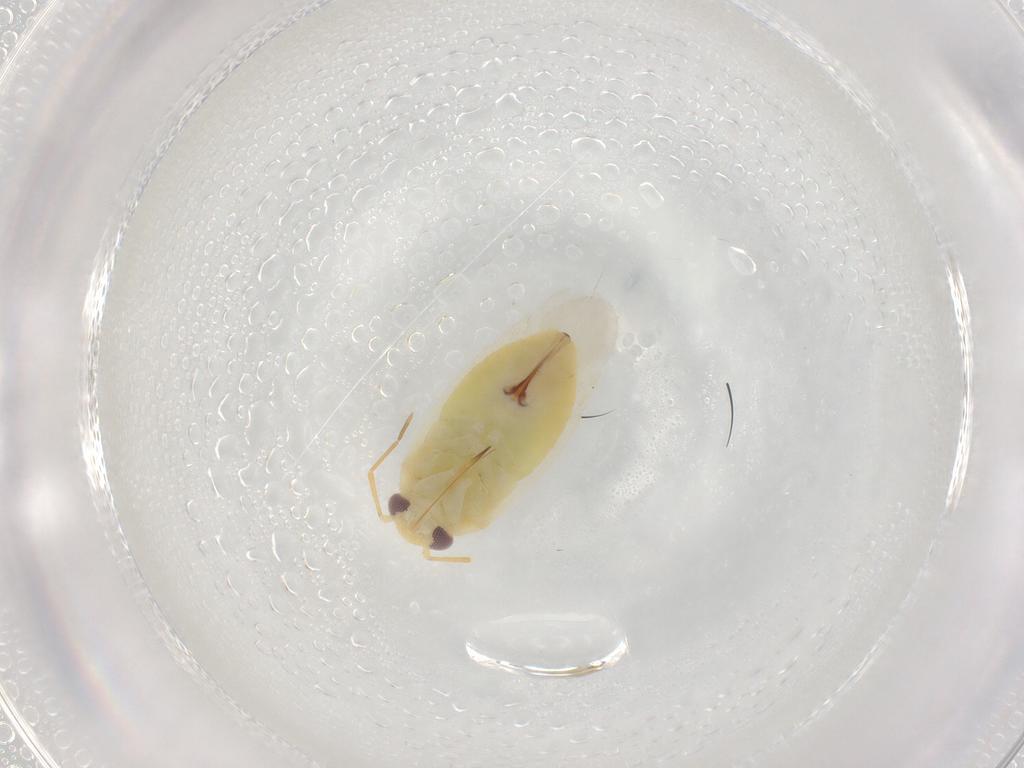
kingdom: Animalia
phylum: Arthropoda
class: Insecta
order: Hemiptera
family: Miridae
